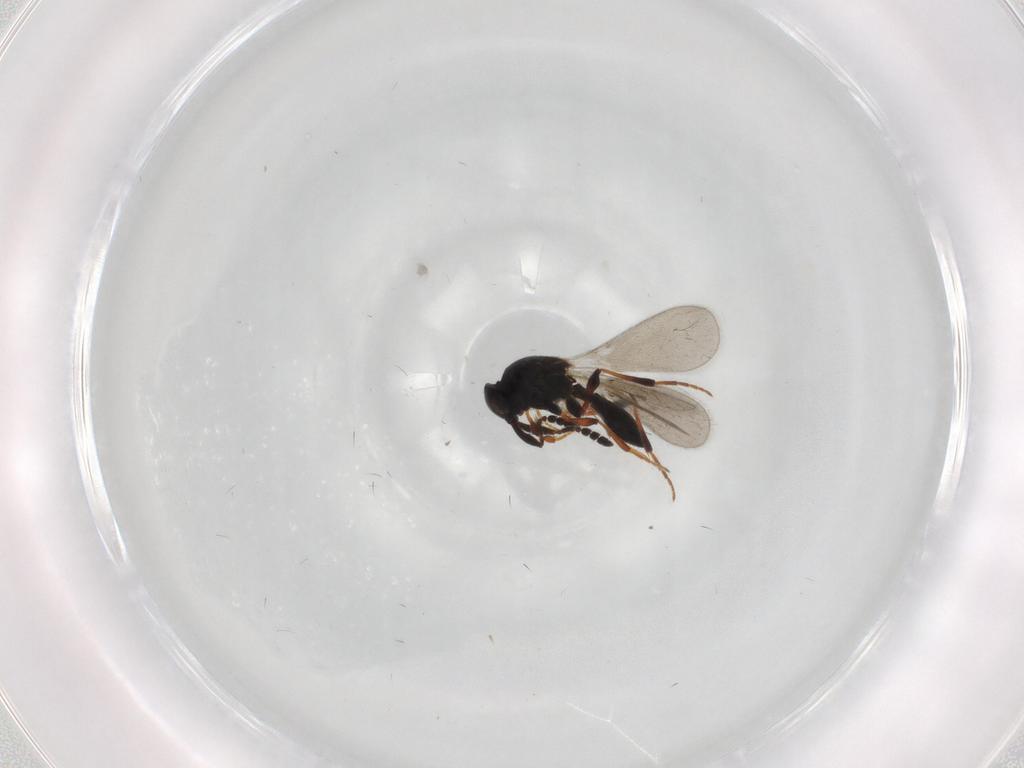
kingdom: Animalia
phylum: Arthropoda
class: Insecta
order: Hymenoptera
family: Platygastridae
